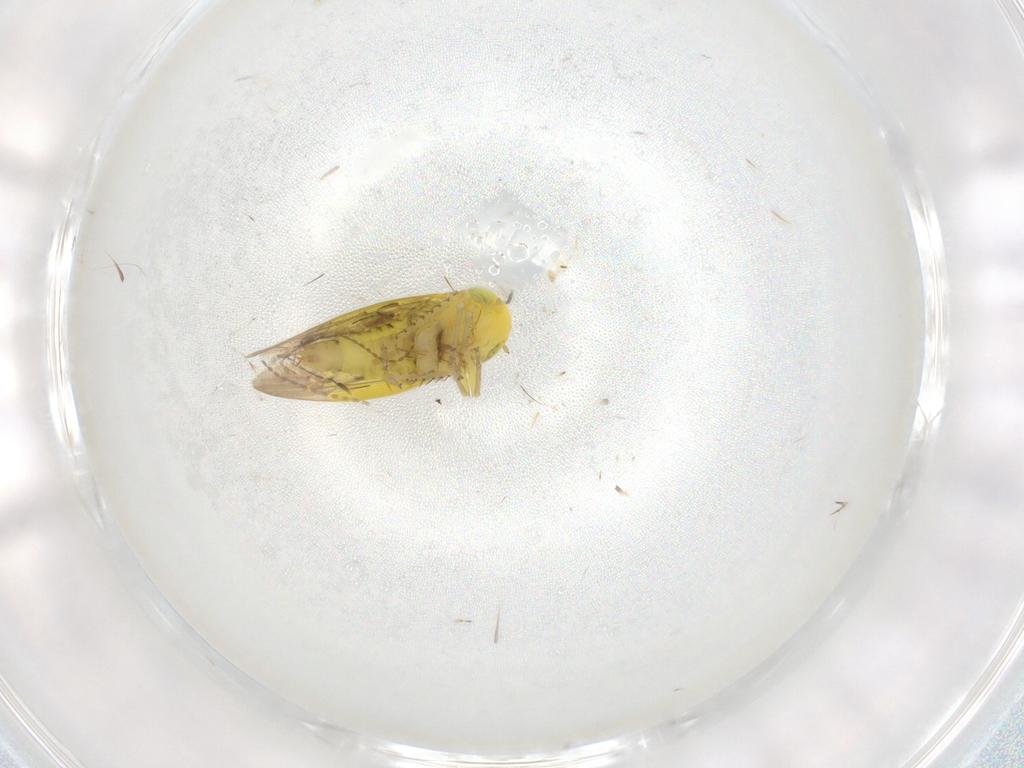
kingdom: Animalia
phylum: Arthropoda
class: Insecta
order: Hemiptera
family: Cicadellidae
